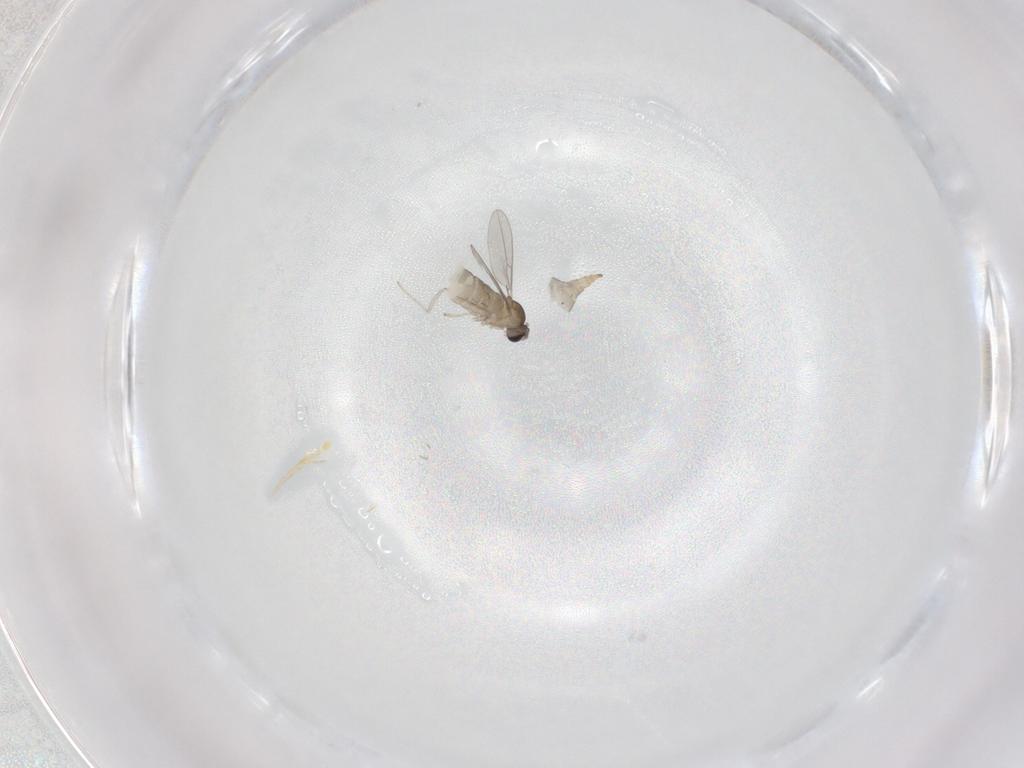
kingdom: Animalia
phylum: Arthropoda
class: Insecta
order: Diptera
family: Cecidomyiidae
